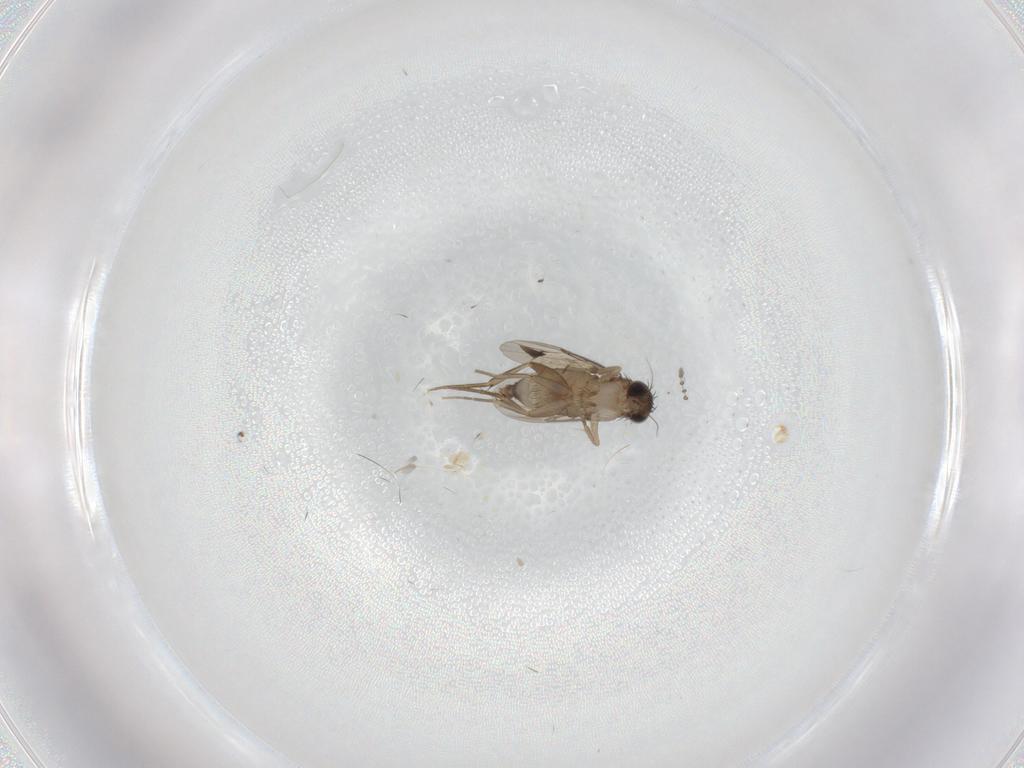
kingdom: Animalia
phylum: Arthropoda
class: Insecta
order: Diptera
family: Phoridae
